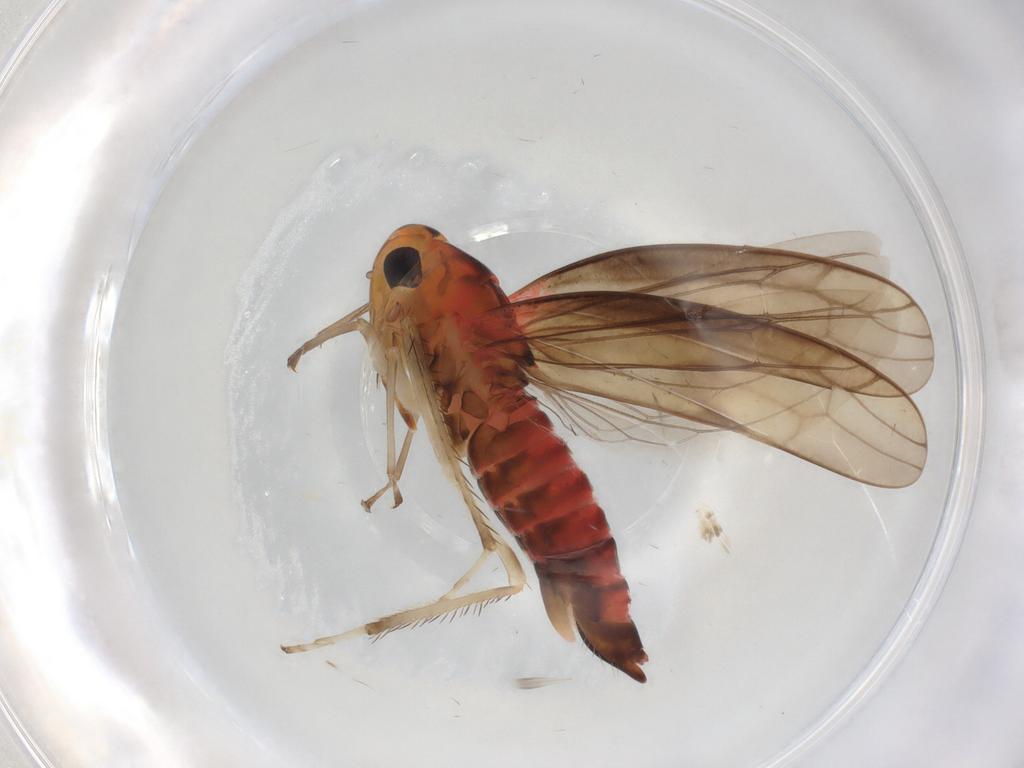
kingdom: Animalia
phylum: Arthropoda
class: Insecta
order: Hemiptera
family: Cicadellidae
